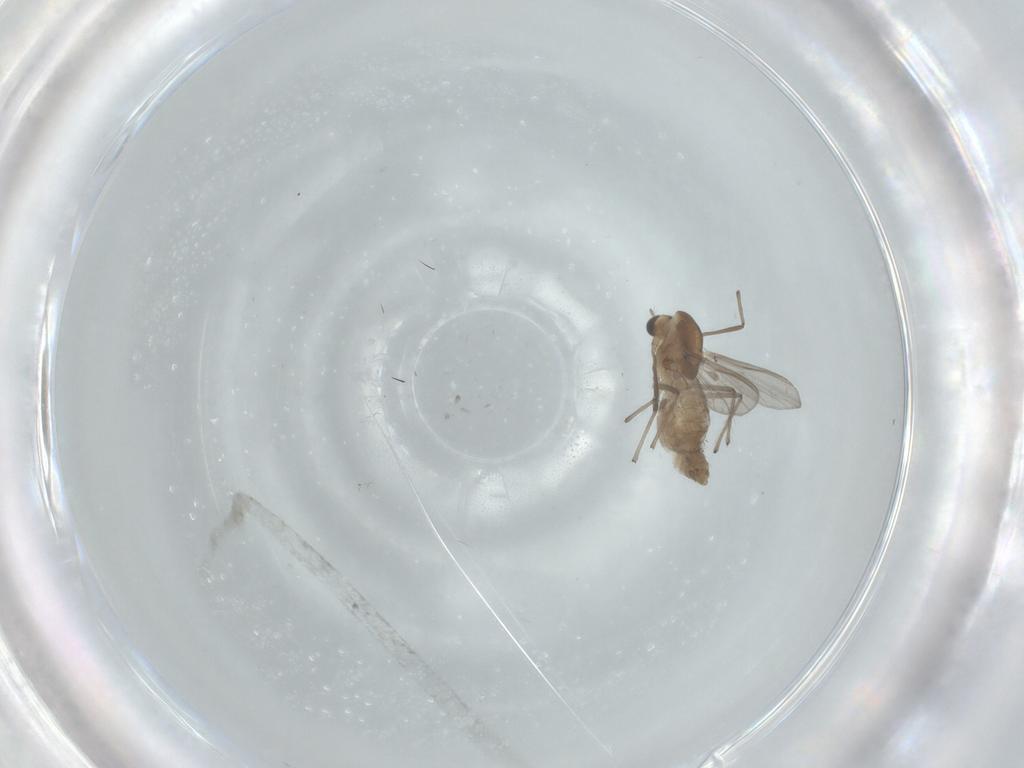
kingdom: Animalia
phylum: Arthropoda
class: Insecta
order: Diptera
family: Chironomidae
